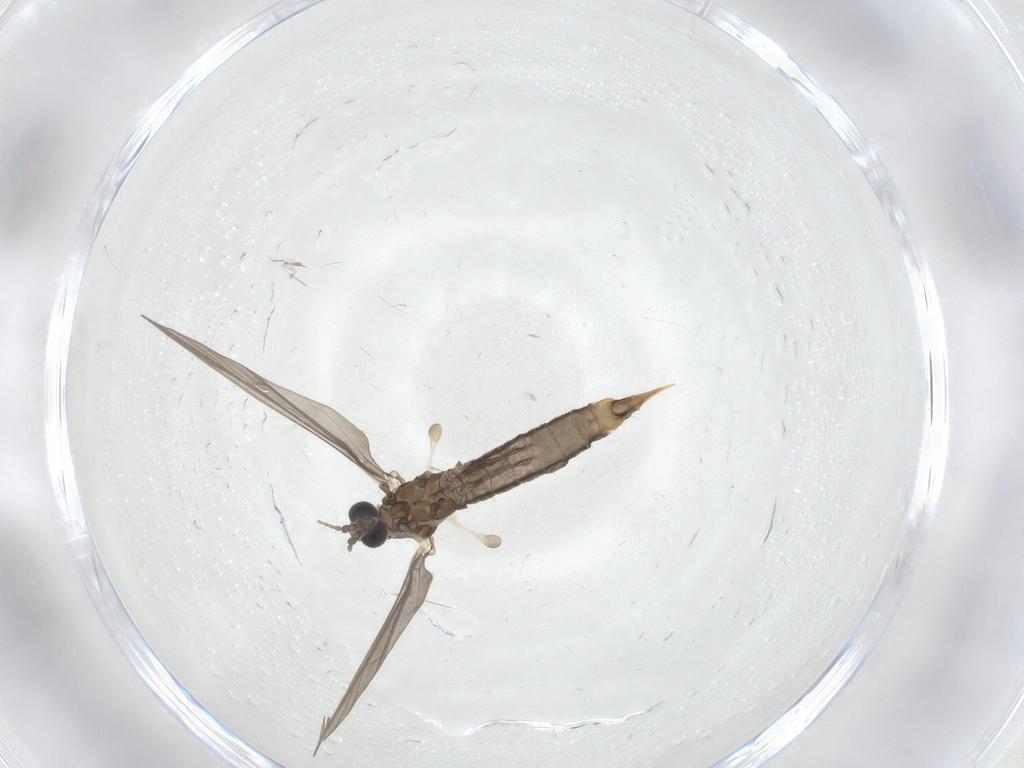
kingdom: Animalia
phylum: Arthropoda
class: Insecta
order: Diptera
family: Limoniidae
